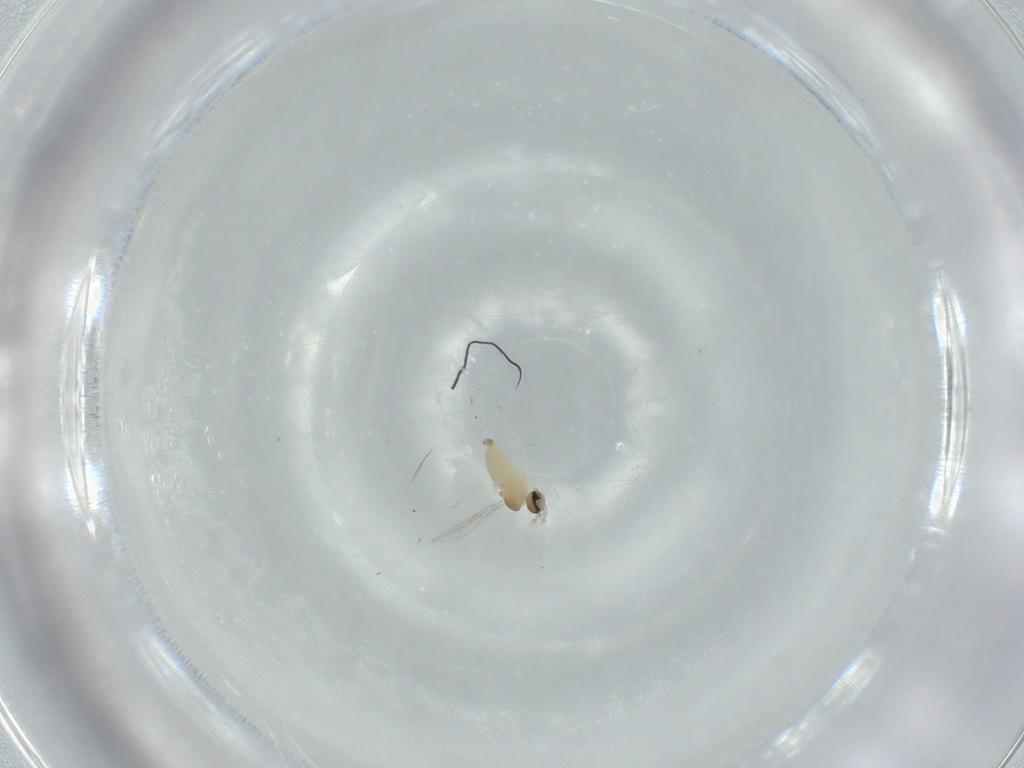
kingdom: Animalia
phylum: Arthropoda
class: Insecta
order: Diptera
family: Cecidomyiidae
